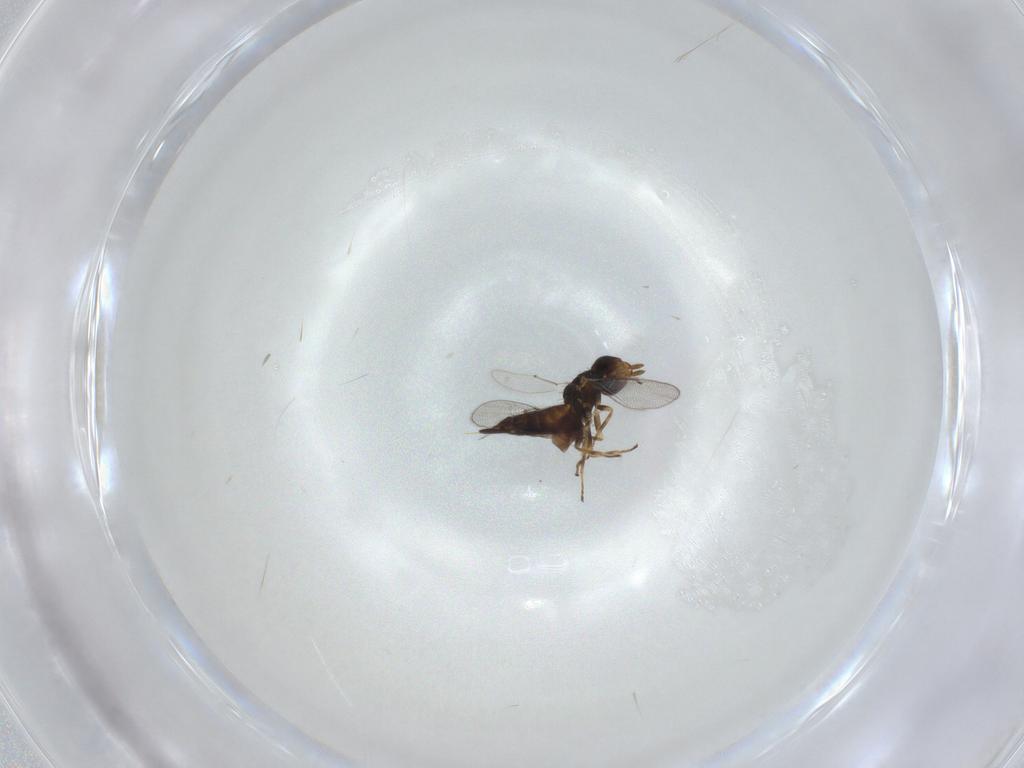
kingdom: Animalia
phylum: Arthropoda
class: Insecta
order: Hymenoptera
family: Eulophidae
